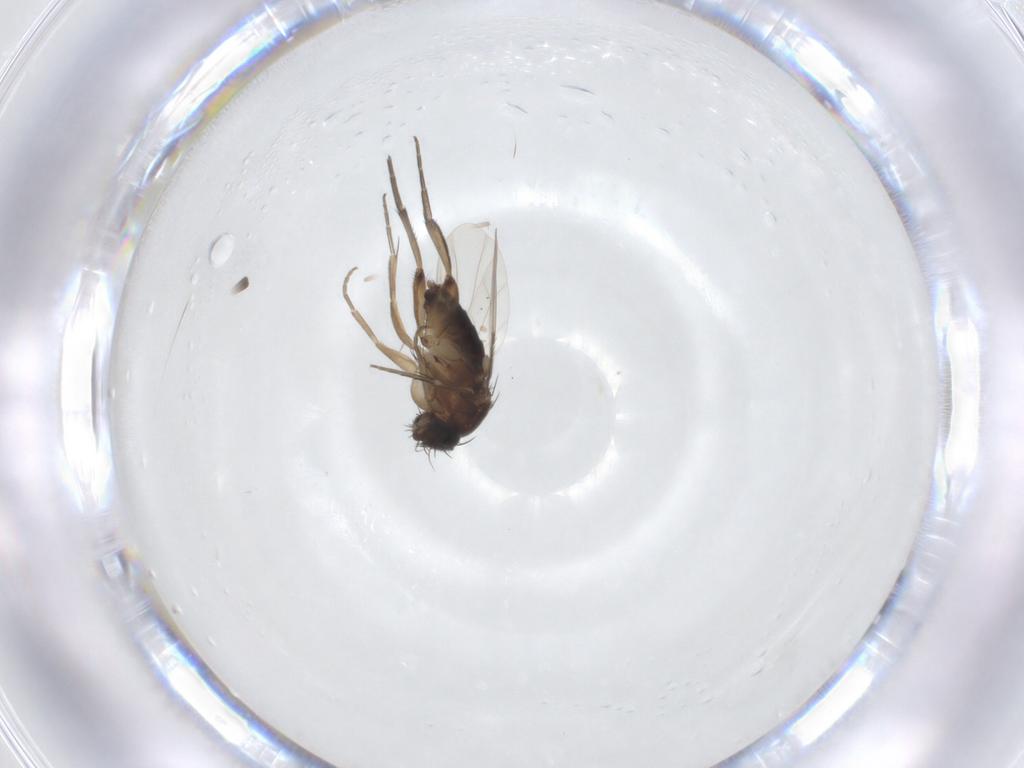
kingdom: Animalia
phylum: Arthropoda
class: Insecta
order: Diptera
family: Phoridae
